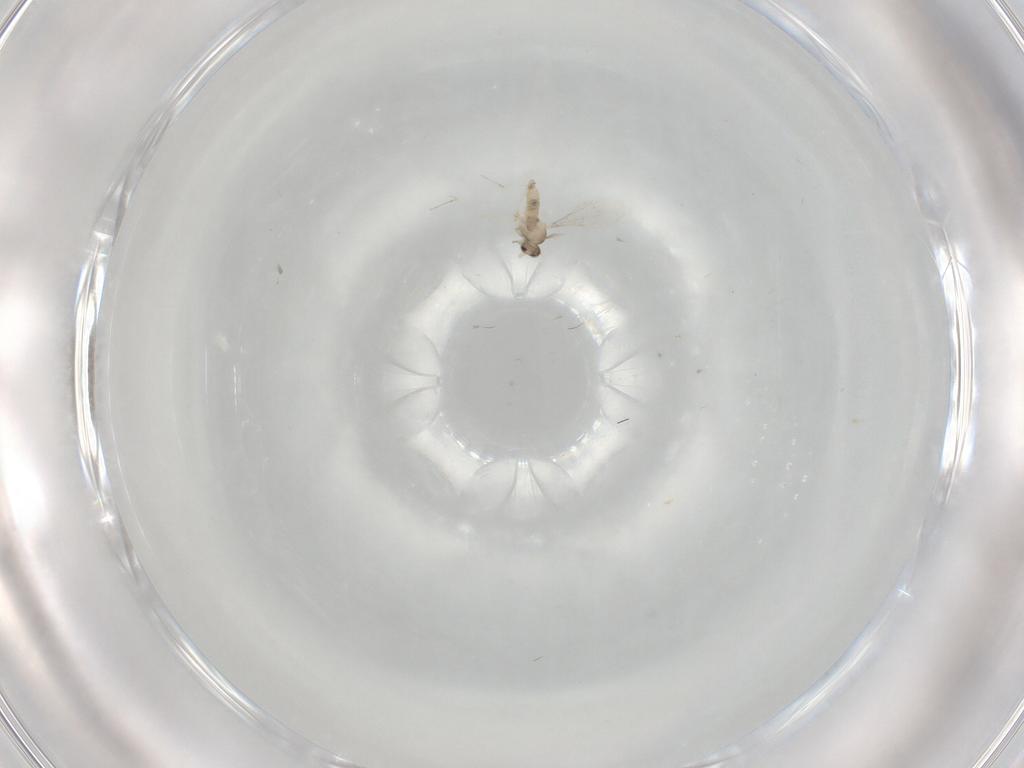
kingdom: Animalia
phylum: Arthropoda
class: Insecta
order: Diptera
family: Cecidomyiidae
